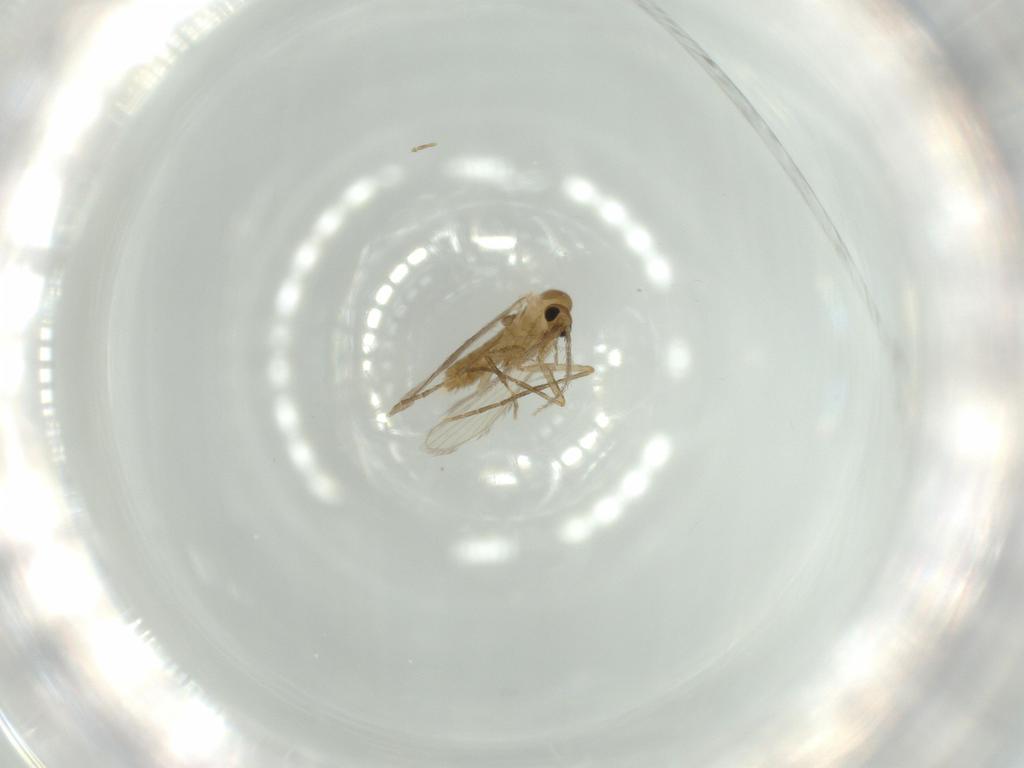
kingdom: Animalia
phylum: Arthropoda
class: Insecta
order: Diptera
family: Psychodidae
